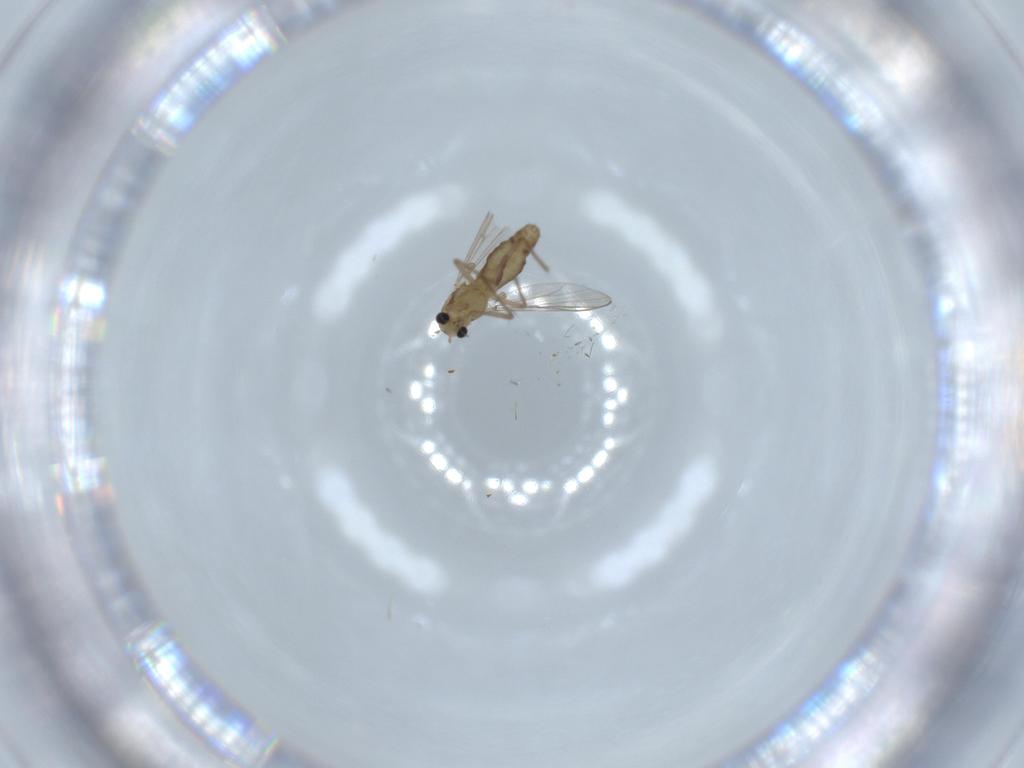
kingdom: Animalia
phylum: Arthropoda
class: Insecta
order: Diptera
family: Chironomidae
